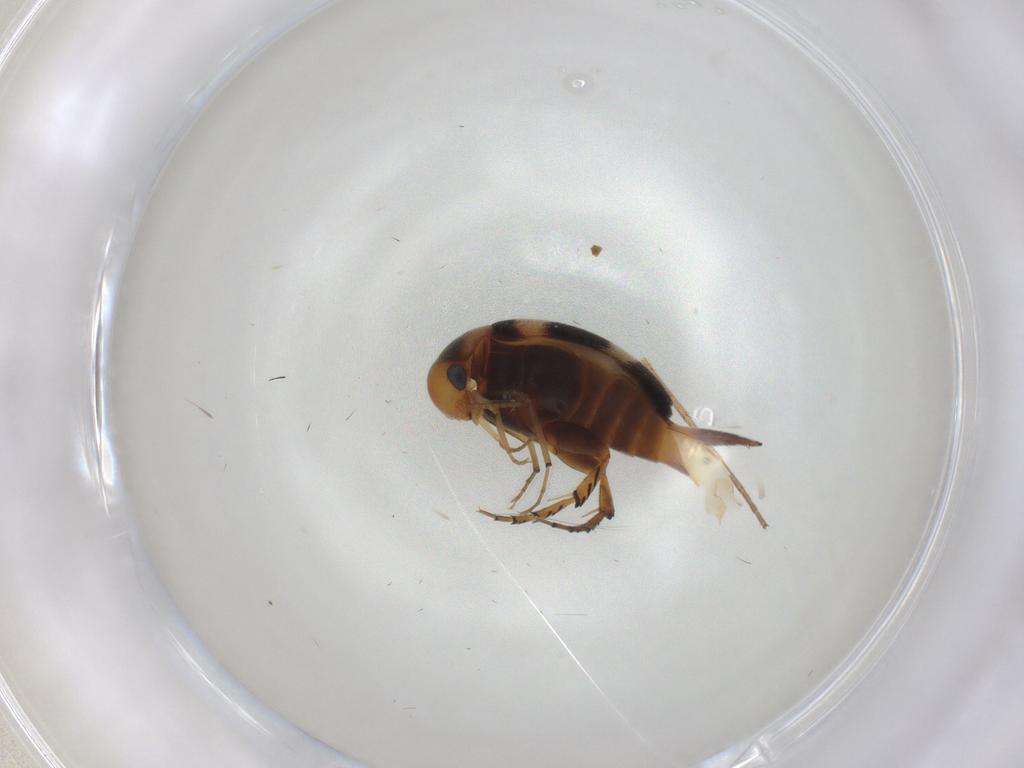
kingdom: Animalia
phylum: Arthropoda
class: Insecta
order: Coleoptera
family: Mordellidae
